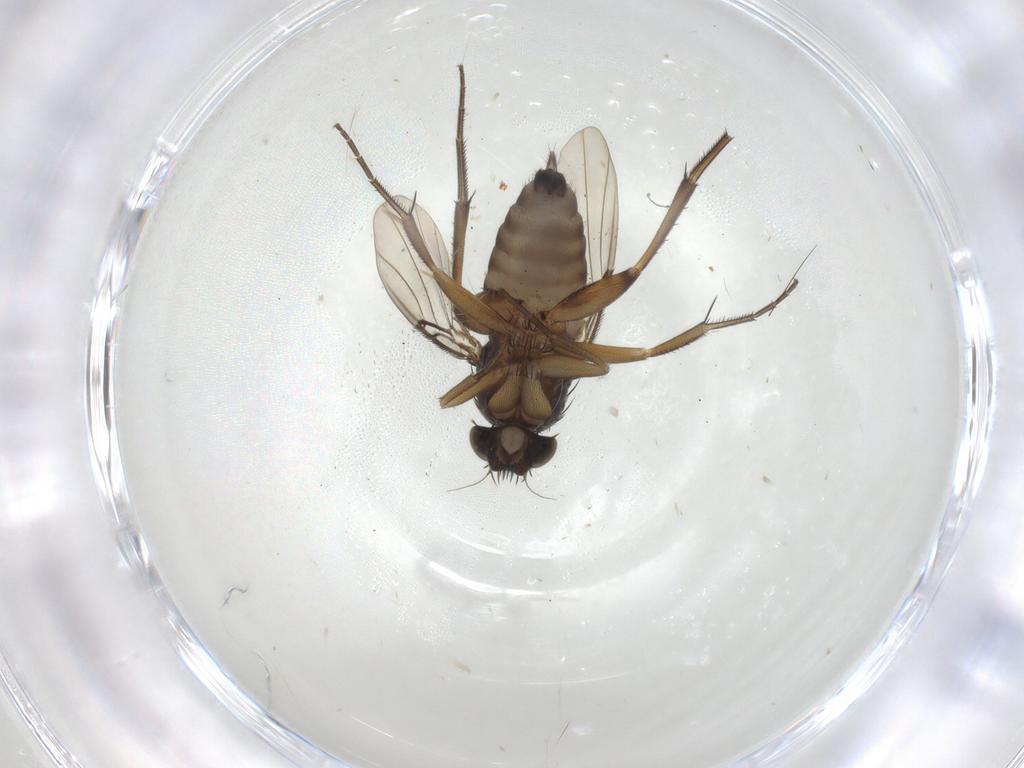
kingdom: Animalia
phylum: Arthropoda
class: Insecta
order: Diptera
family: Phoridae
